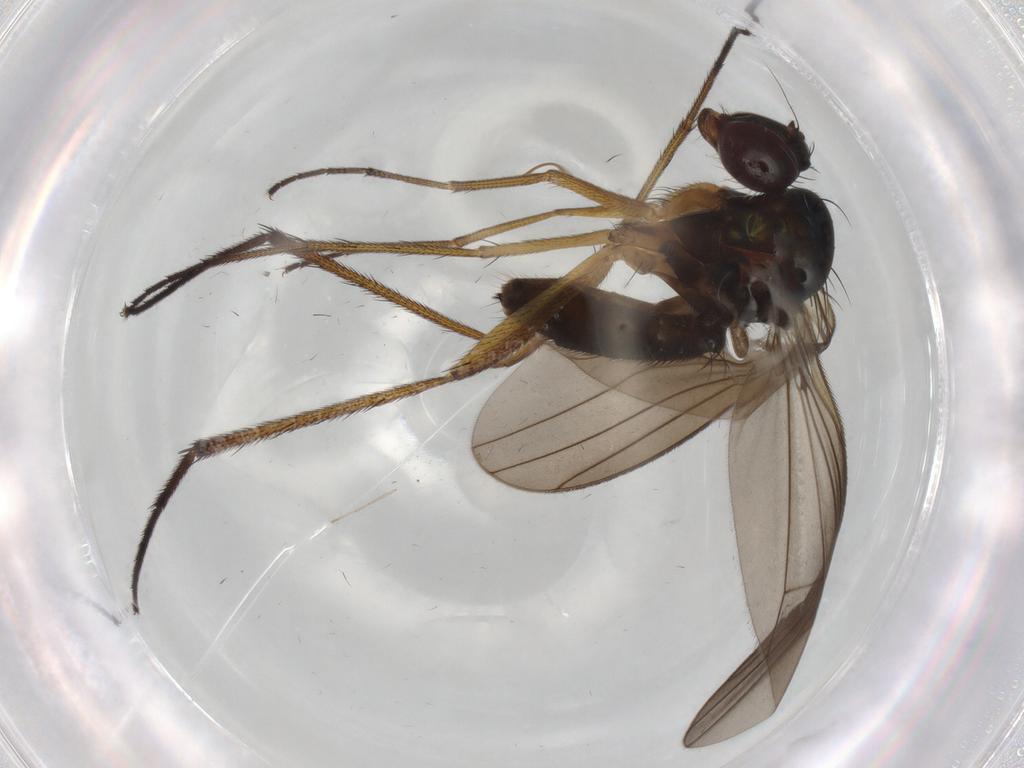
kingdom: Animalia
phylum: Arthropoda
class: Insecta
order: Diptera
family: Dolichopodidae
